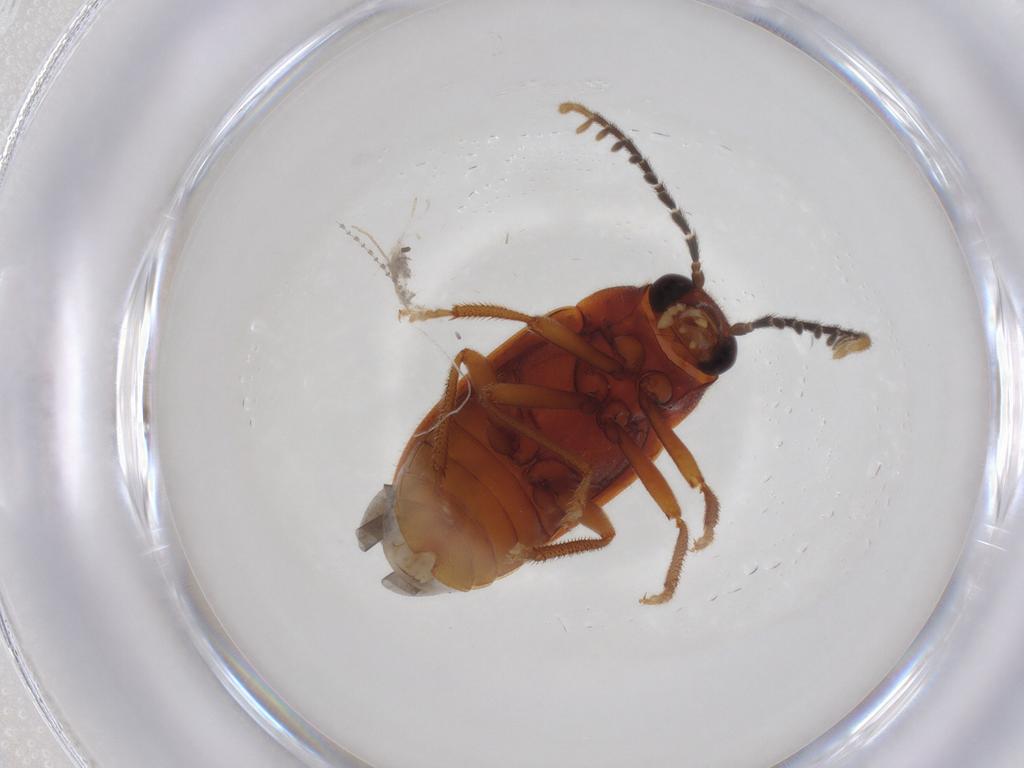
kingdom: Animalia
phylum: Arthropoda
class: Insecta
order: Coleoptera
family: Ptilodactylidae
